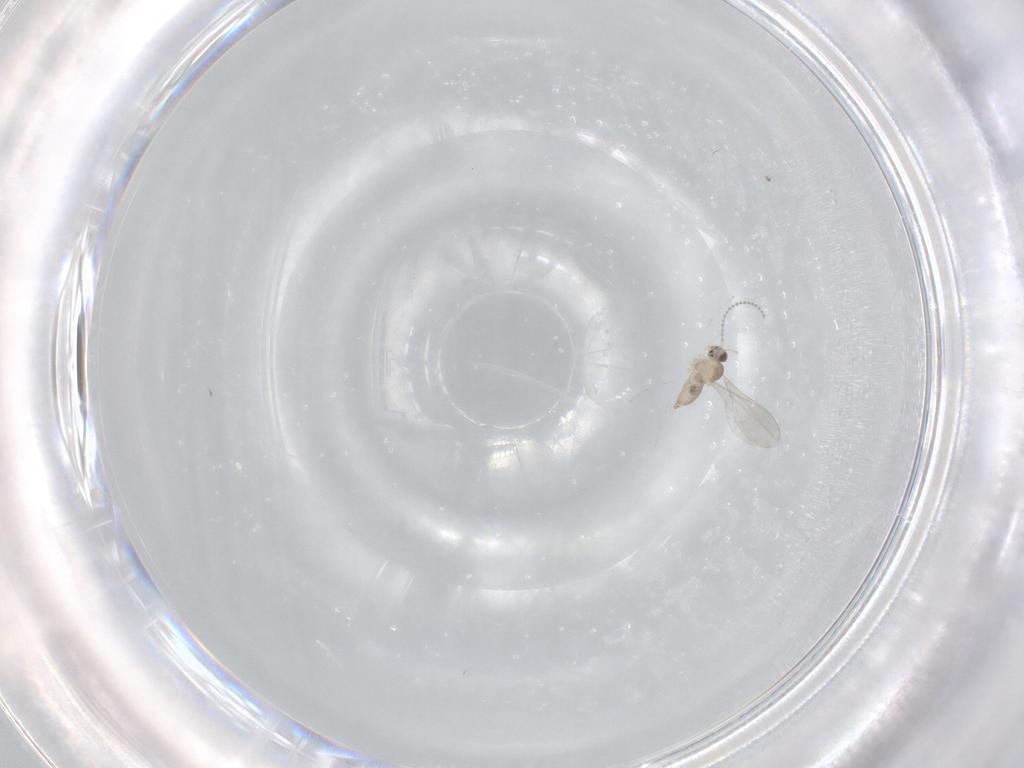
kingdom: Animalia
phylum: Arthropoda
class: Insecta
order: Diptera
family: Cecidomyiidae
